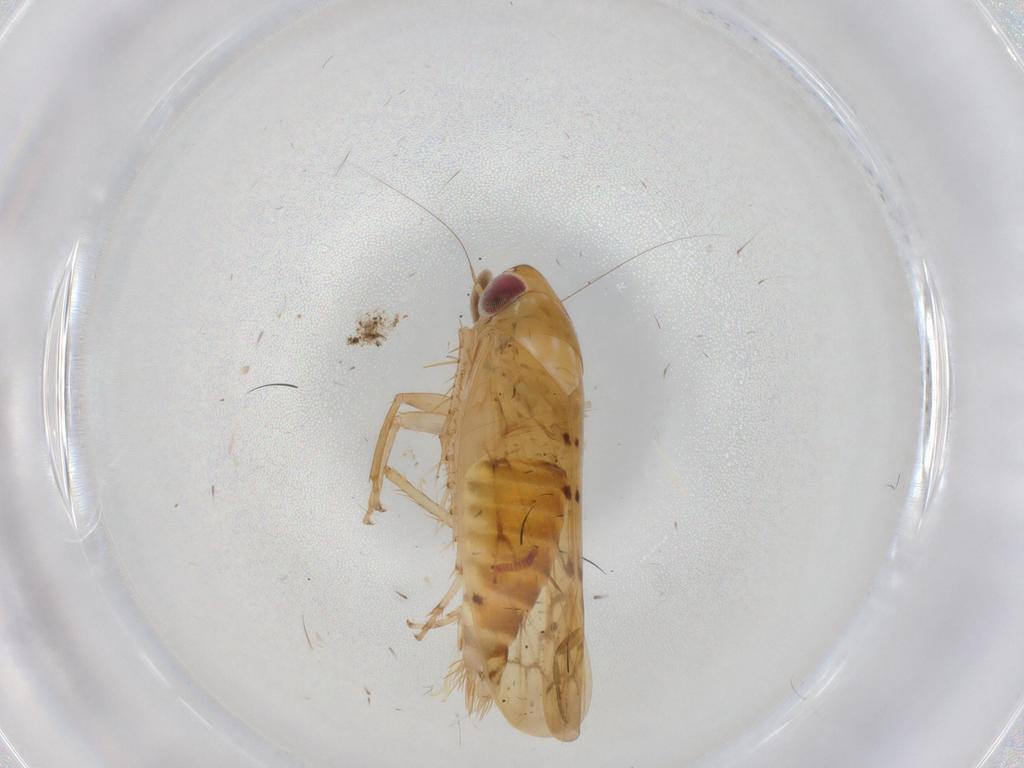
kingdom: Animalia
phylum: Arthropoda
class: Insecta
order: Hemiptera
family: Cicadellidae
